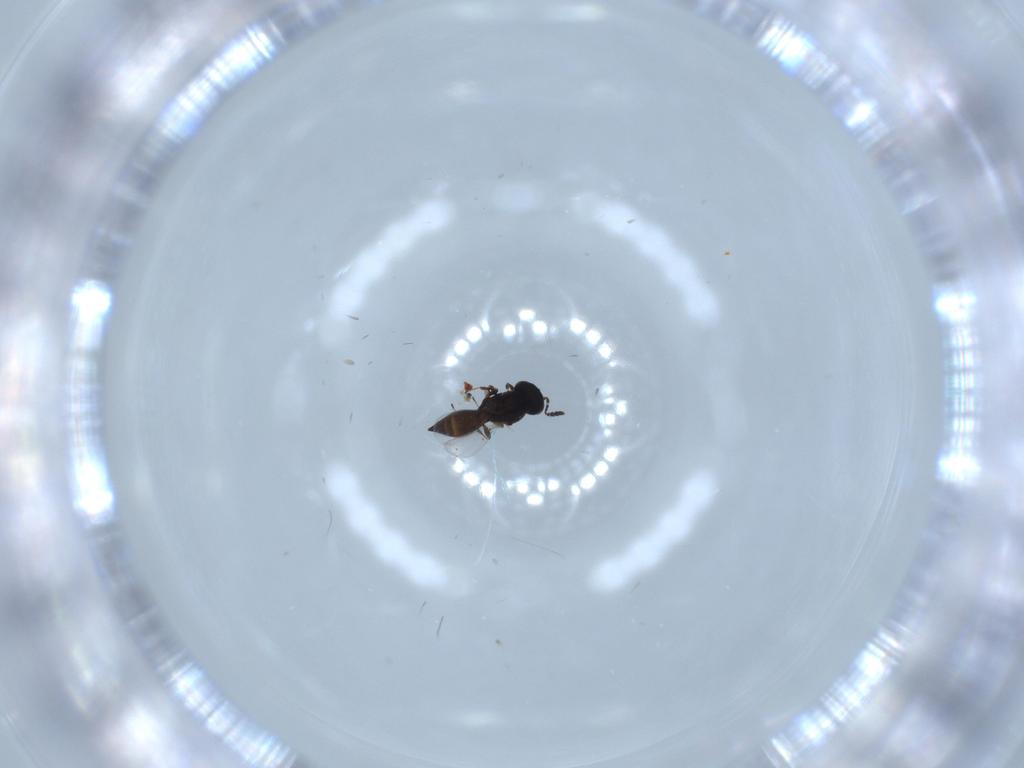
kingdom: Animalia
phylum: Arthropoda
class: Insecta
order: Hymenoptera
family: Platygastridae
